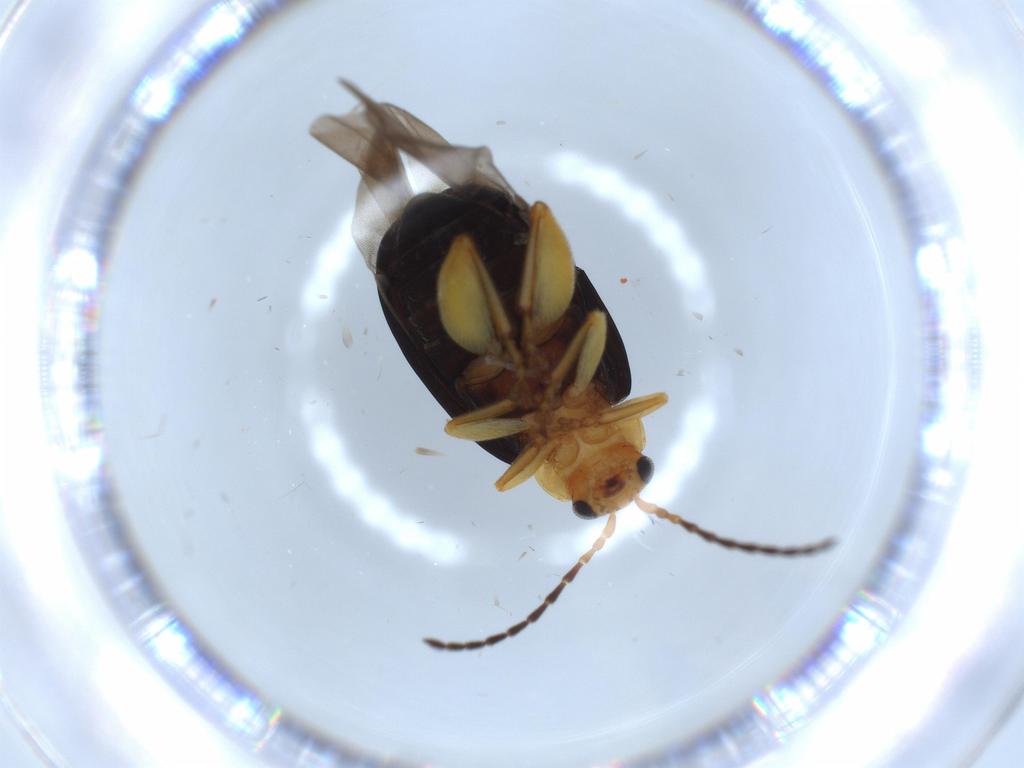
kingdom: Animalia
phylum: Arthropoda
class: Insecta
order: Coleoptera
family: Chrysomelidae
